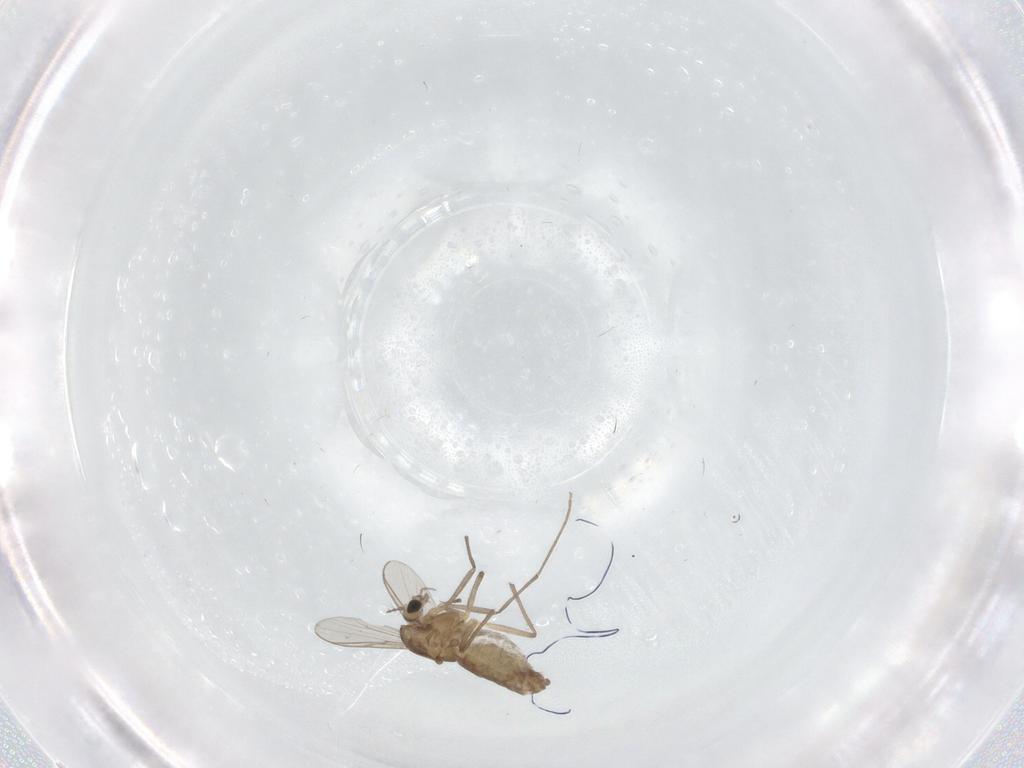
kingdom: Animalia
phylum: Arthropoda
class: Insecta
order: Diptera
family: Chironomidae
